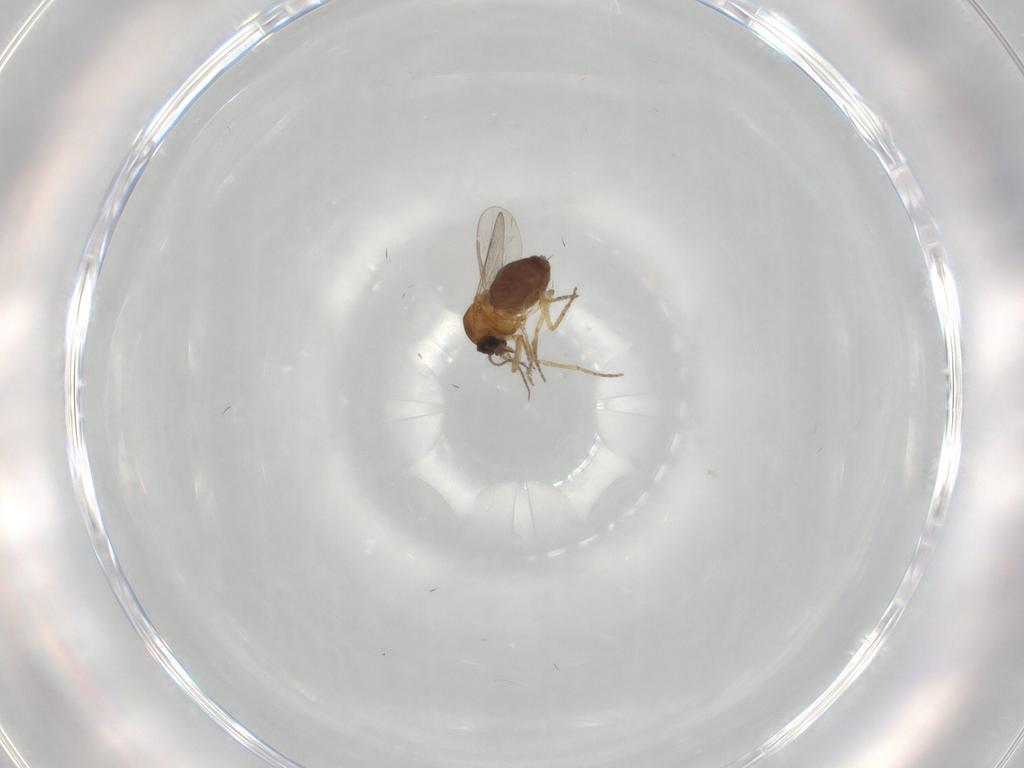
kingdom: Animalia
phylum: Arthropoda
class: Insecta
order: Diptera
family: Ceratopogonidae
